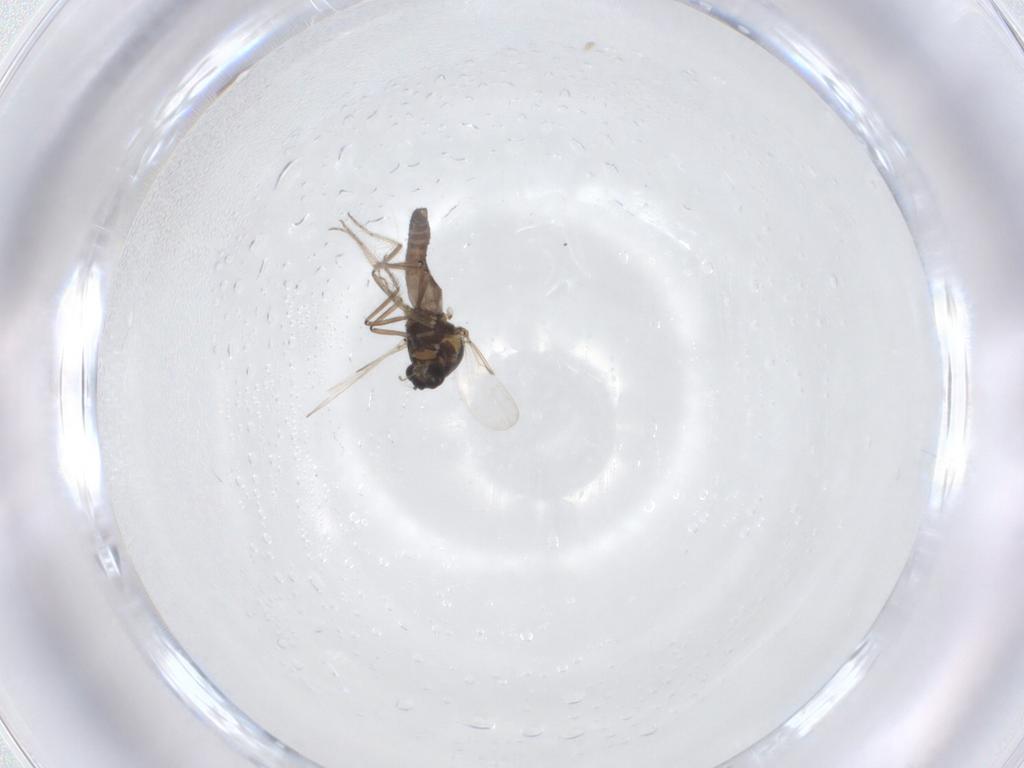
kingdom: Animalia
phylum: Arthropoda
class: Insecta
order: Diptera
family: Ceratopogonidae
